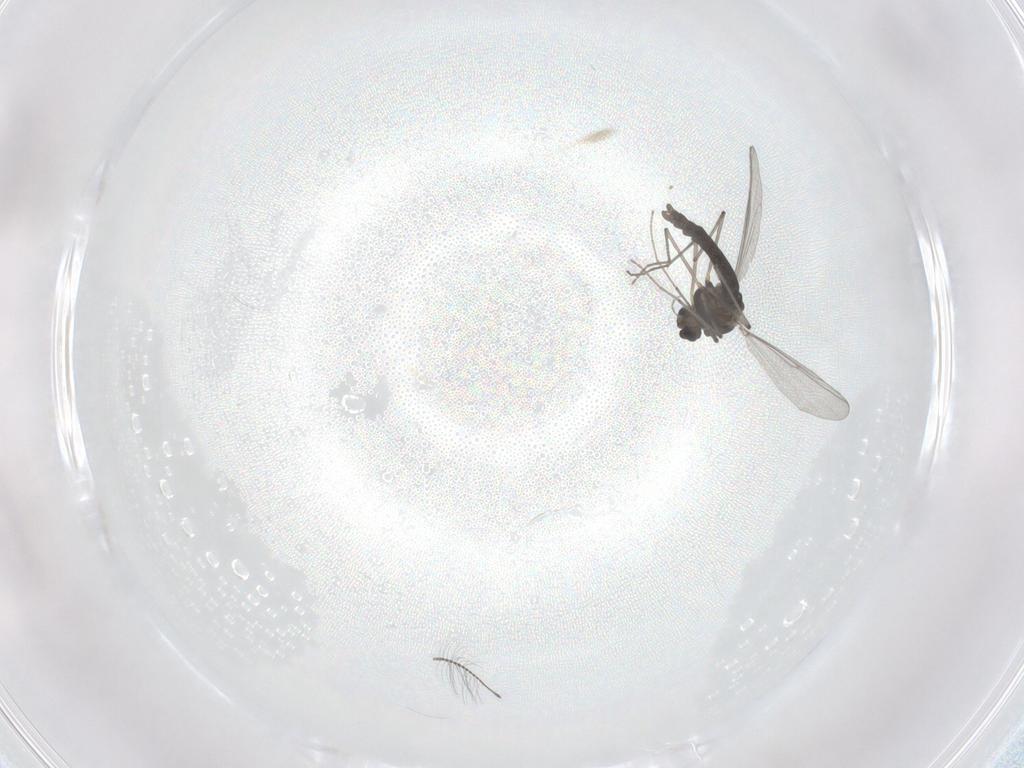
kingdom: Animalia
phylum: Arthropoda
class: Insecta
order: Diptera
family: Chironomidae
